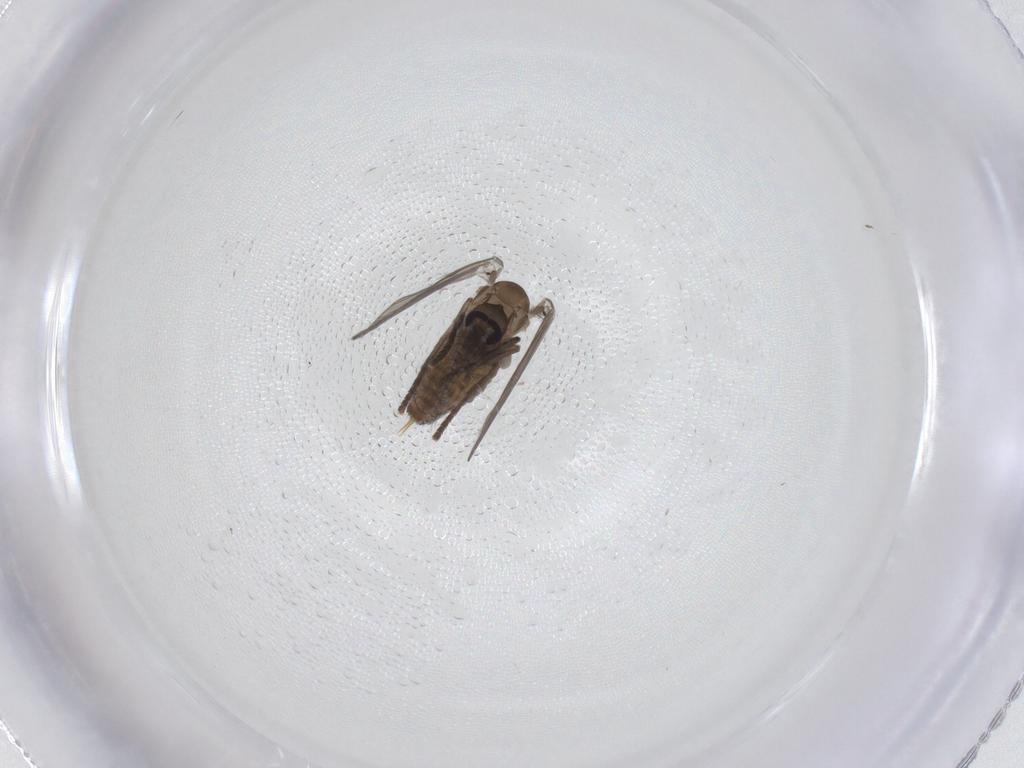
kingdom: Animalia
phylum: Arthropoda
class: Insecta
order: Diptera
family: Psychodidae
